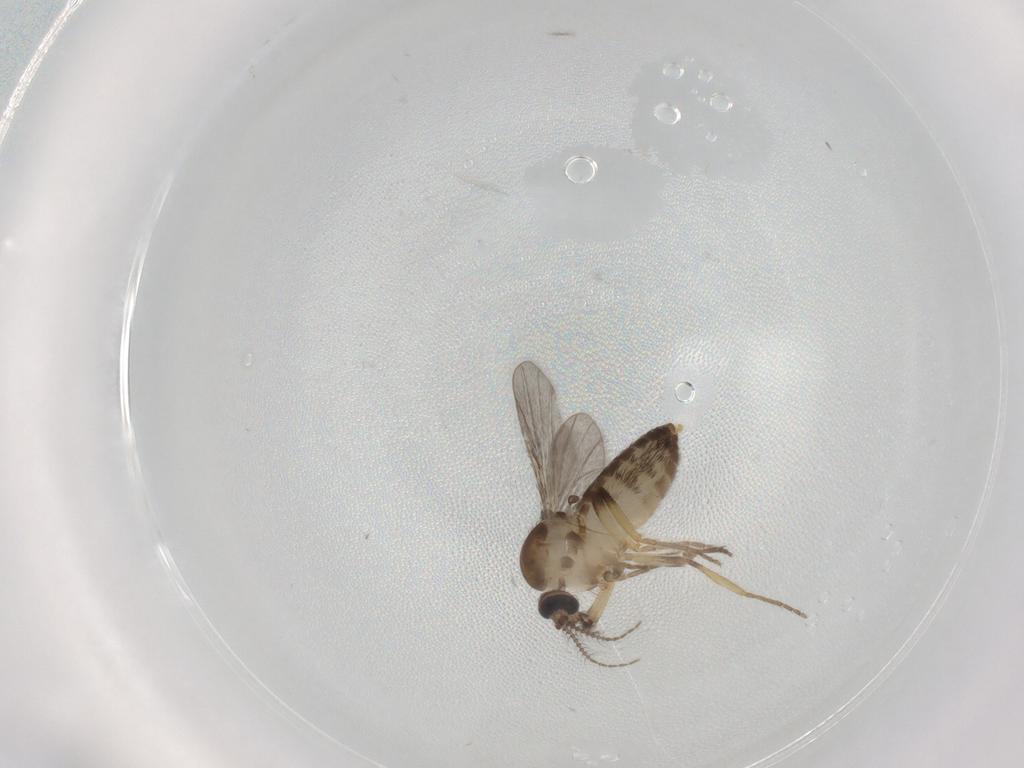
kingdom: Animalia
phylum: Arthropoda
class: Insecta
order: Diptera
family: Ceratopogonidae
